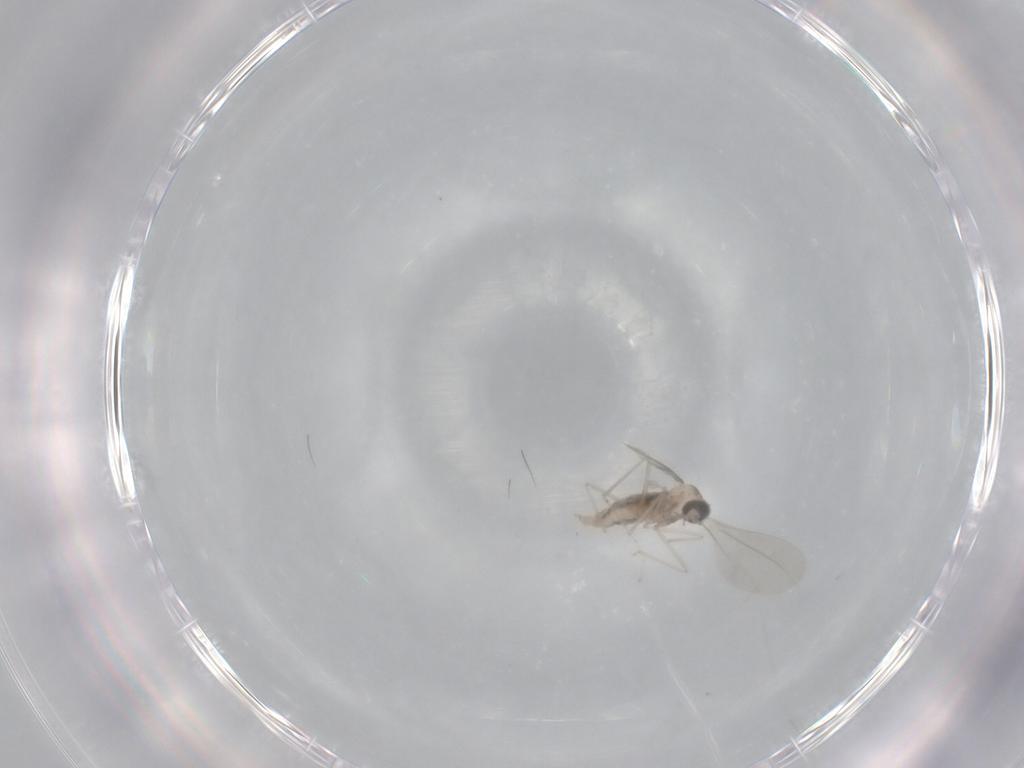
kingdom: Animalia
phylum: Arthropoda
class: Insecta
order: Diptera
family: Cecidomyiidae
